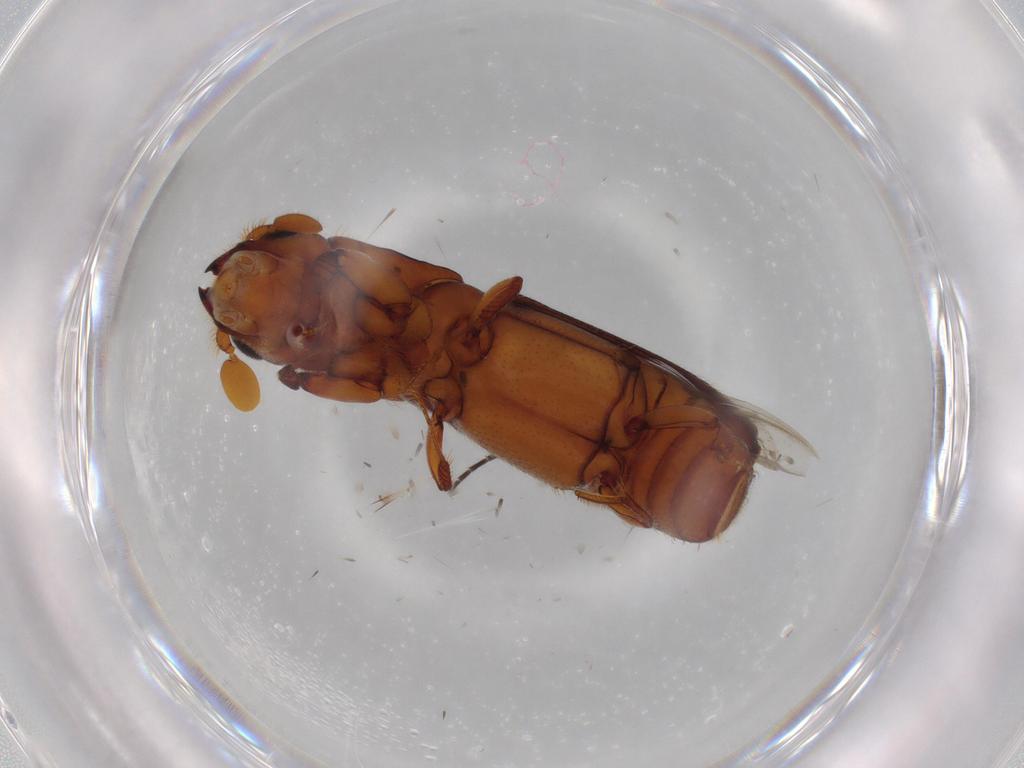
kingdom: Animalia
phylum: Arthropoda
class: Insecta
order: Coleoptera
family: Curculionidae
